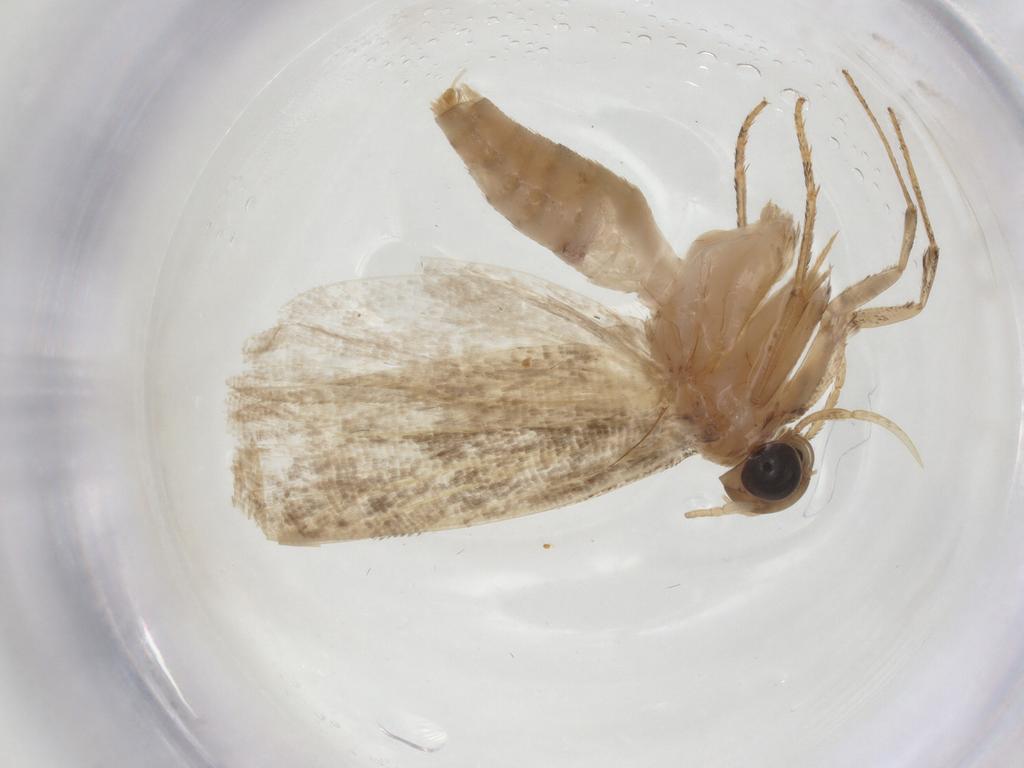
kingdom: Animalia
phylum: Arthropoda
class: Insecta
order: Lepidoptera
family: Glyphipterigidae
